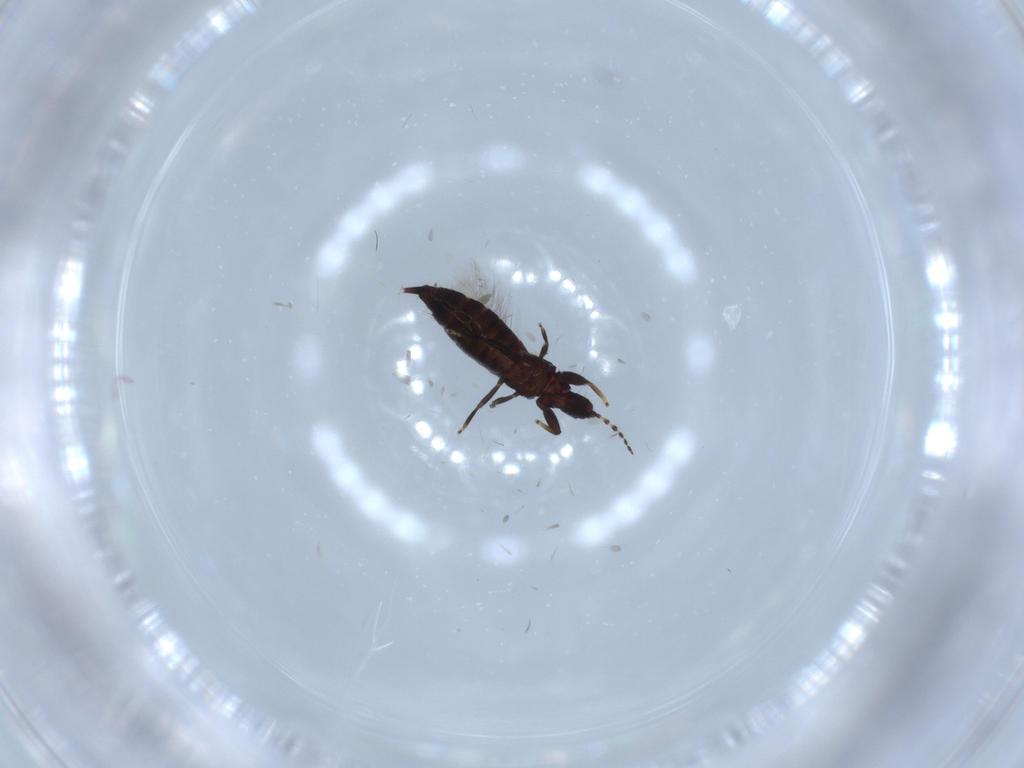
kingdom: Animalia
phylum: Arthropoda
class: Insecta
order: Thysanoptera
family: Phlaeothripidae
